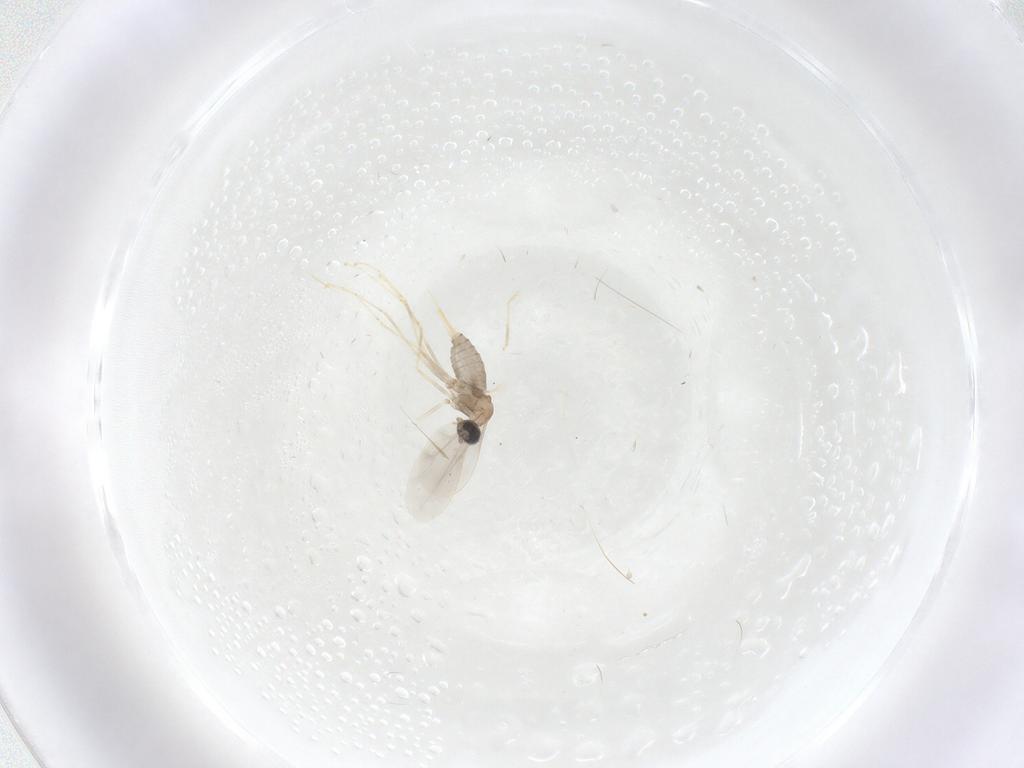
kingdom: Animalia
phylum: Arthropoda
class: Insecta
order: Diptera
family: Cecidomyiidae
